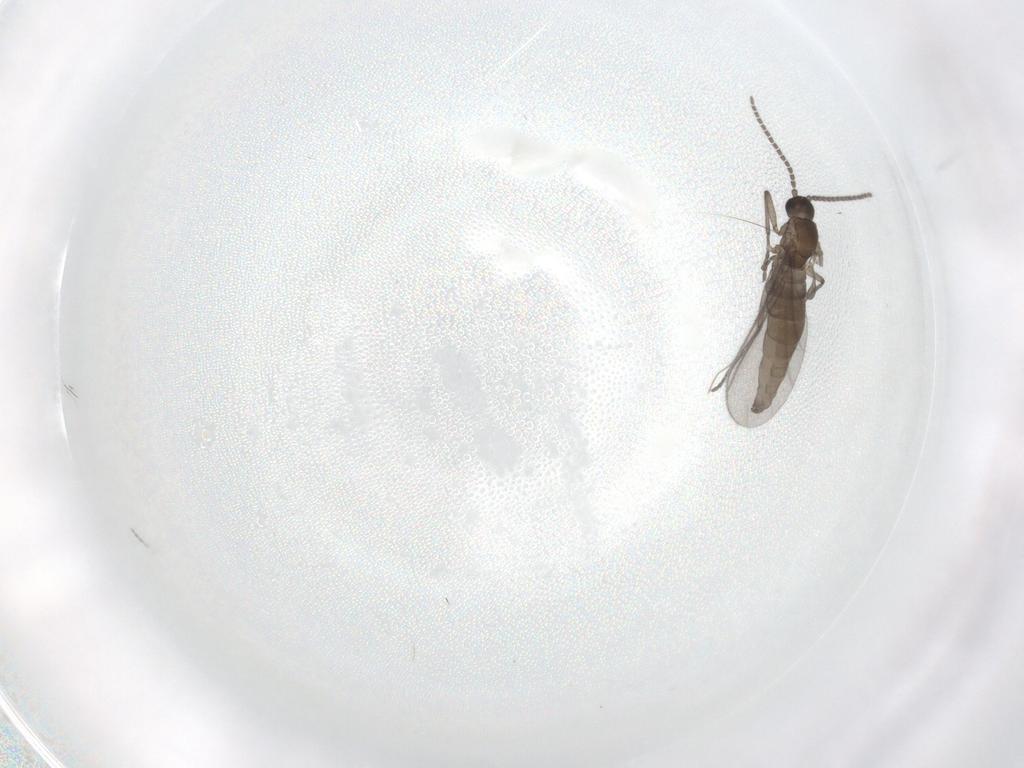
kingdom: Animalia
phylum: Arthropoda
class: Insecta
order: Diptera
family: Sciaridae
